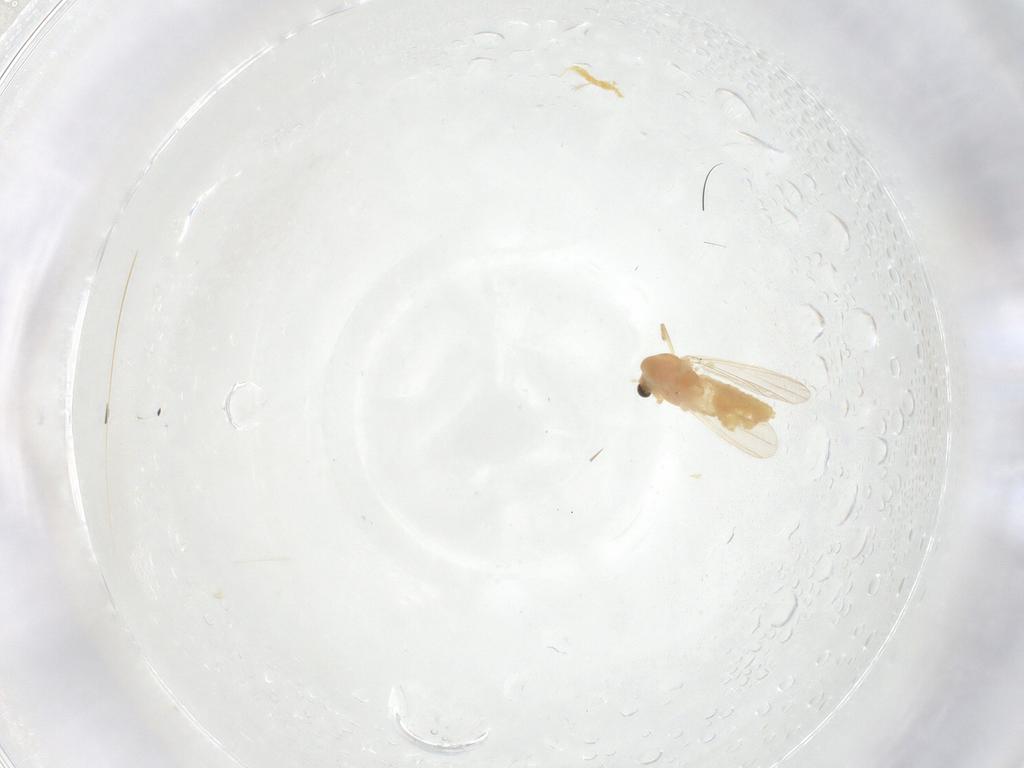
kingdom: Animalia
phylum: Arthropoda
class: Insecta
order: Diptera
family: Chironomidae
